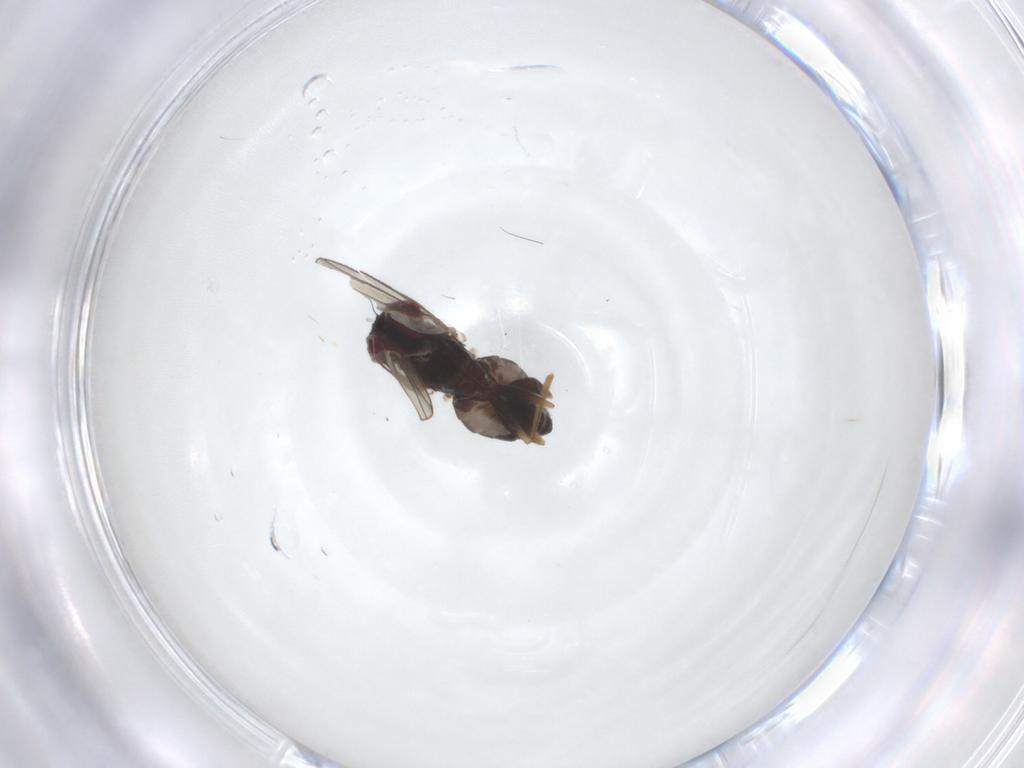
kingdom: Animalia
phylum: Arthropoda
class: Insecta
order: Diptera
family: Dolichopodidae
